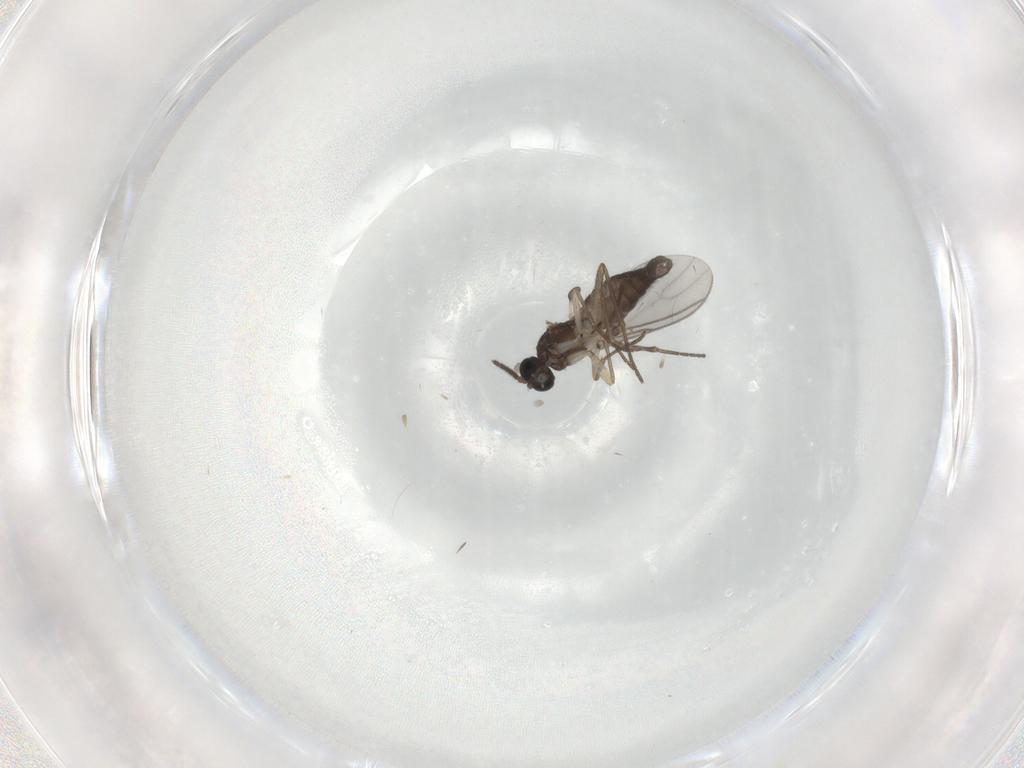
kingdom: Animalia
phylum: Arthropoda
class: Insecta
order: Diptera
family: Sciaridae
